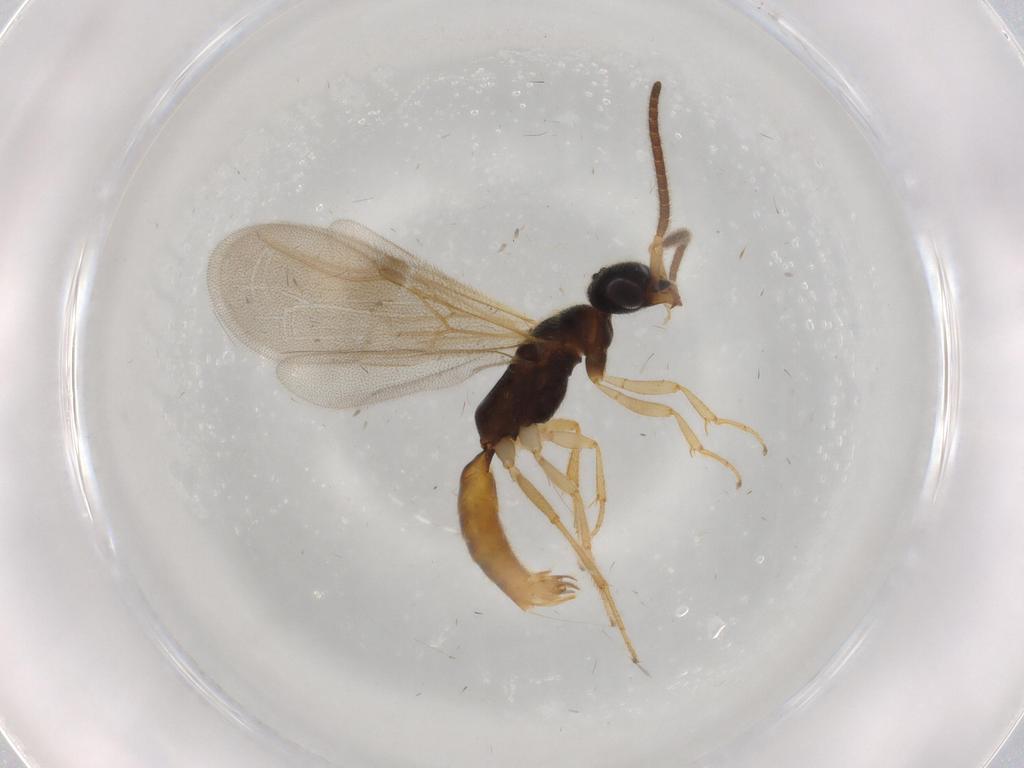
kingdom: Animalia
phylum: Arthropoda
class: Insecta
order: Hymenoptera
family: Bethylidae
